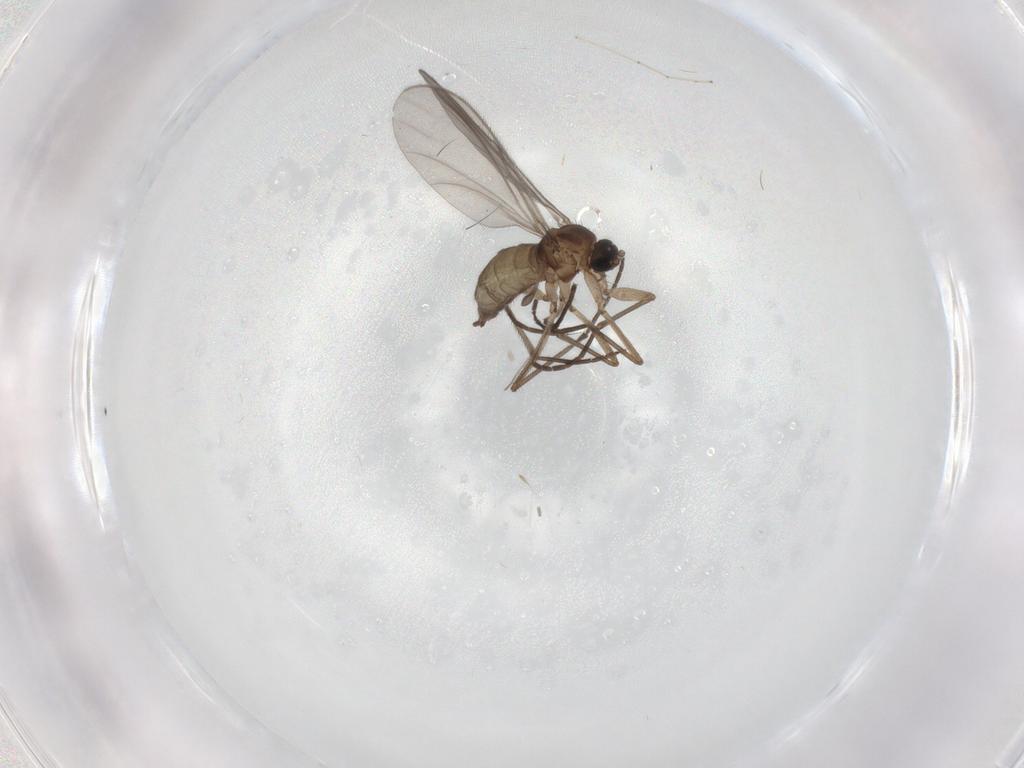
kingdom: Animalia
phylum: Arthropoda
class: Insecta
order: Diptera
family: Sciaridae
